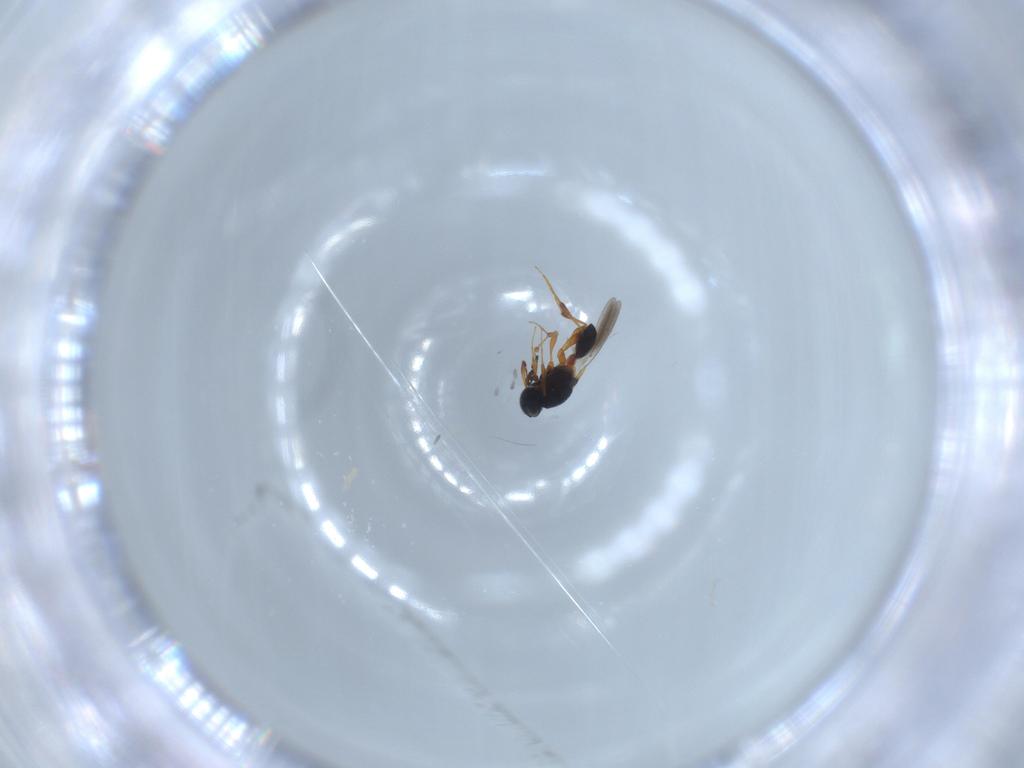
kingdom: Animalia
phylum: Arthropoda
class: Insecta
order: Hymenoptera
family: Platygastridae
